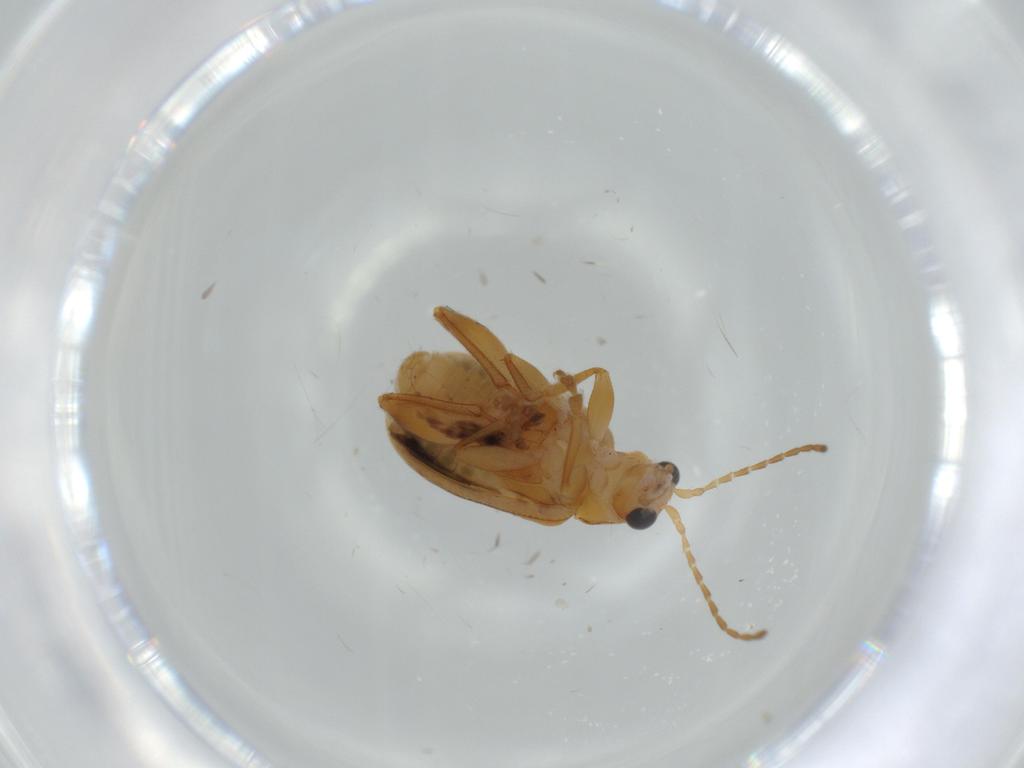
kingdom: Animalia
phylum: Arthropoda
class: Insecta
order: Coleoptera
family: Chrysomelidae
